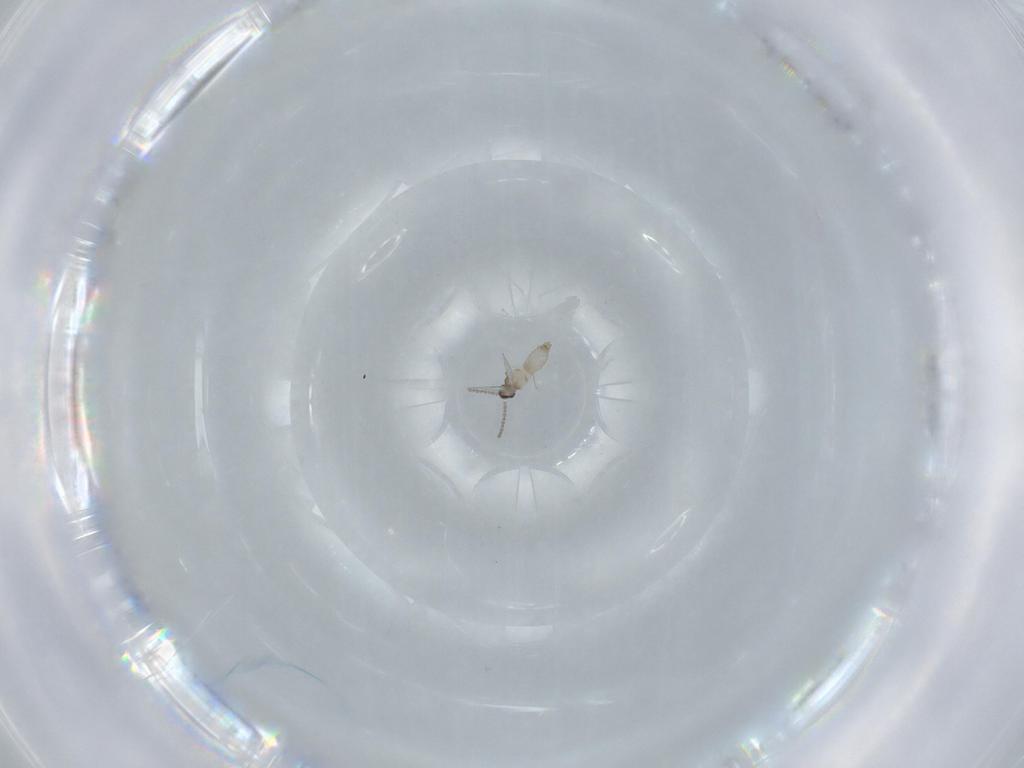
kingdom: Animalia
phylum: Arthropoda
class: Insecta
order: Diptera
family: Cecidomyiidae
